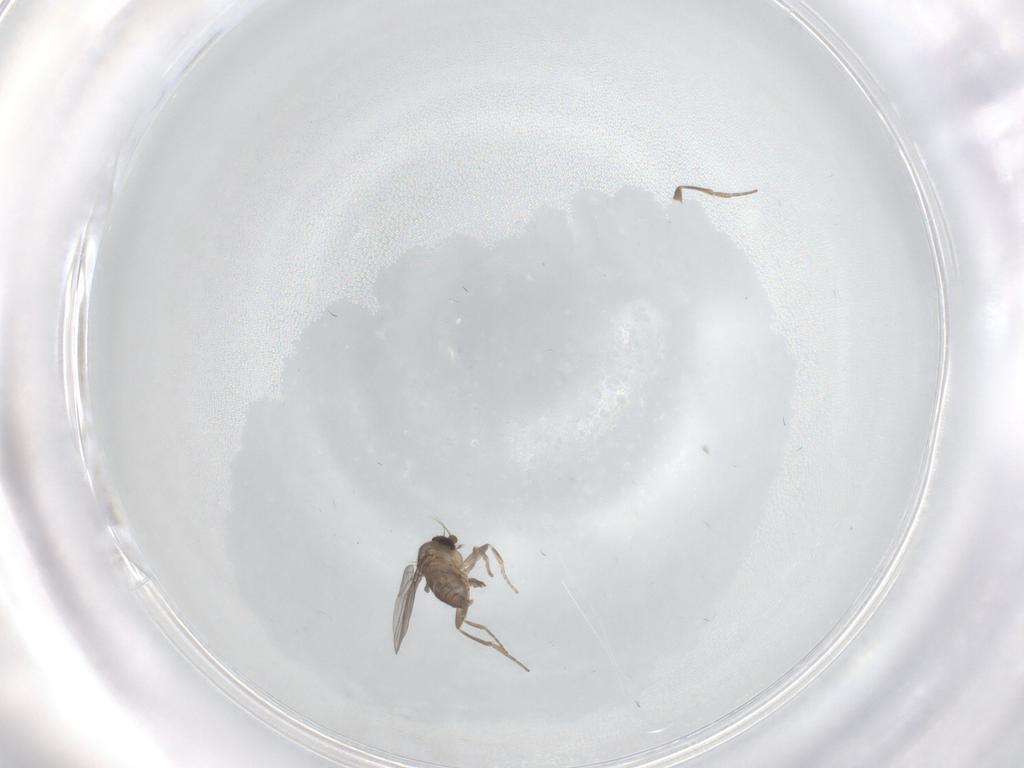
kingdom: Animalia
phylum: Arthropoda
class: Insecta
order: Diptera
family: Phoridae
